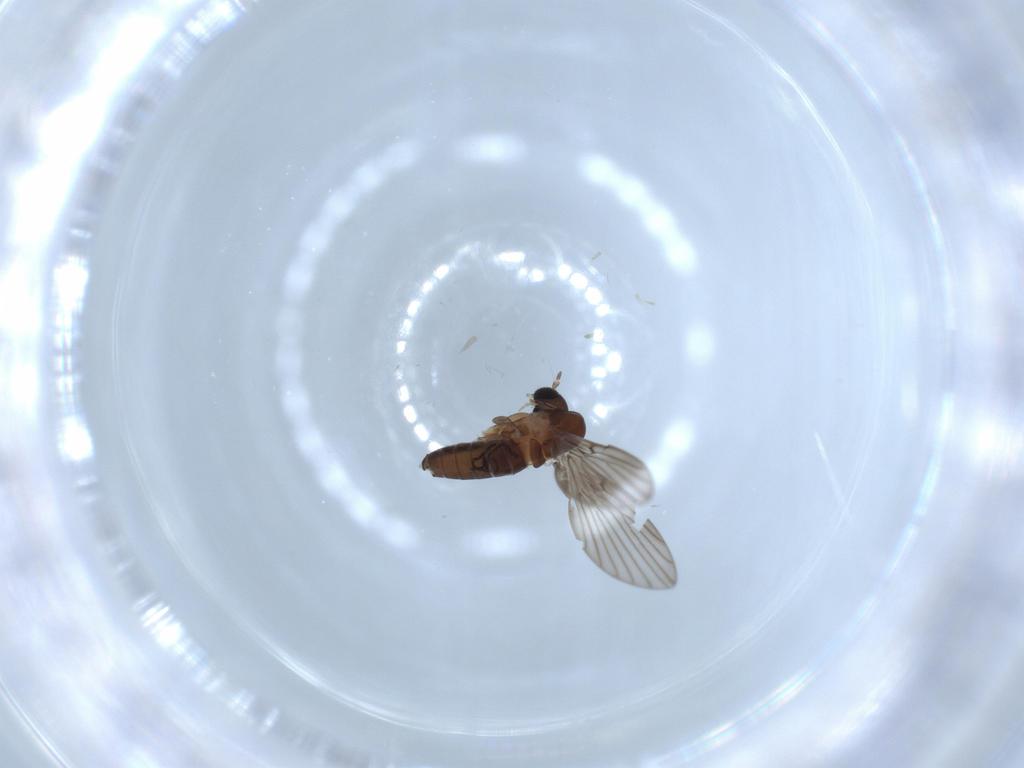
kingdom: Animalia
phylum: Arthropoda
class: Insecta
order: Diptera
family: Psychodidae
